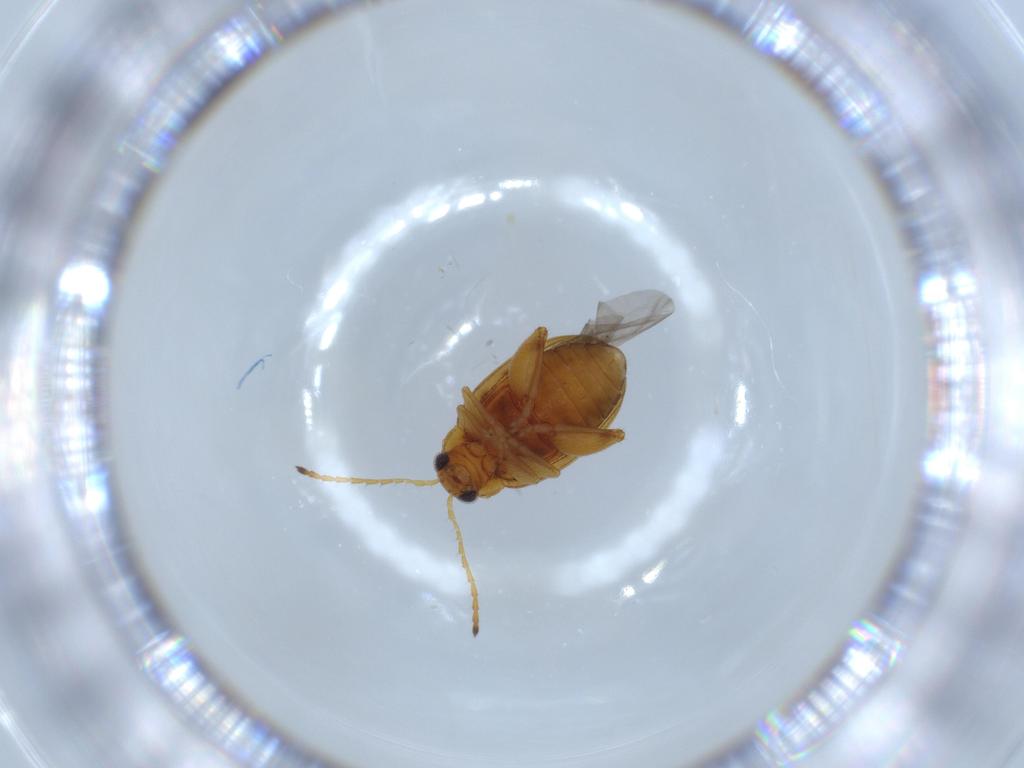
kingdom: Animalia
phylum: Arthropoda
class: Insecta
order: Coleoptera
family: Chrysomelidae
